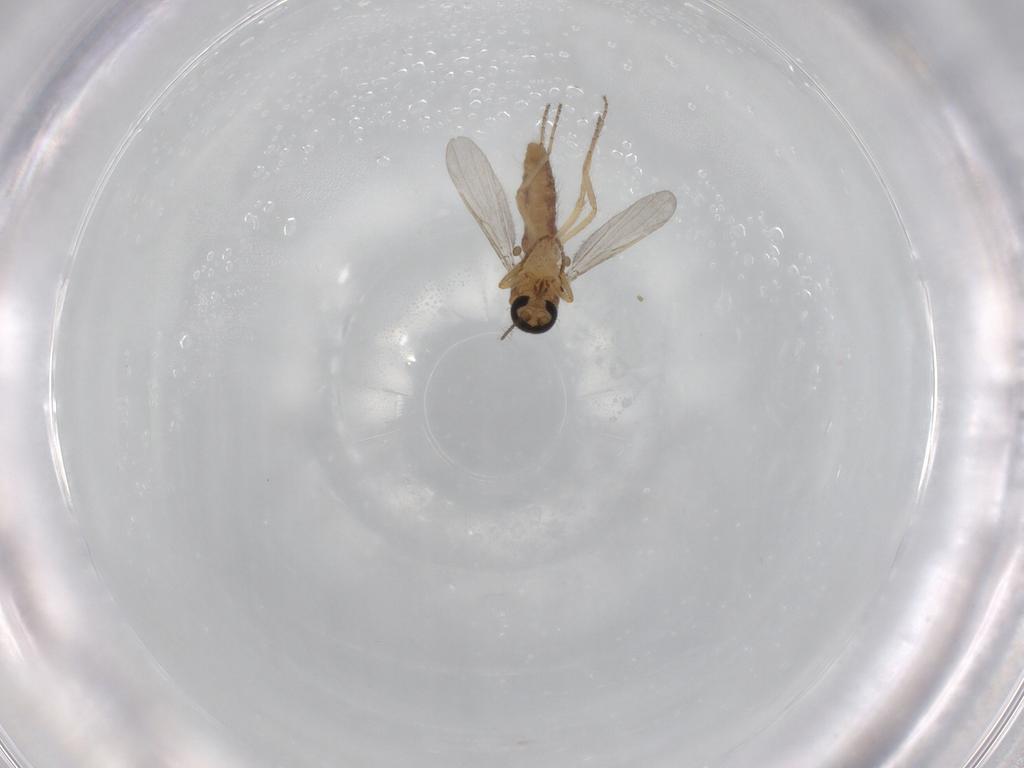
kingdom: Animalia
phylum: Arthropoda
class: Insecta
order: Diptera
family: Ceratopogonidae
